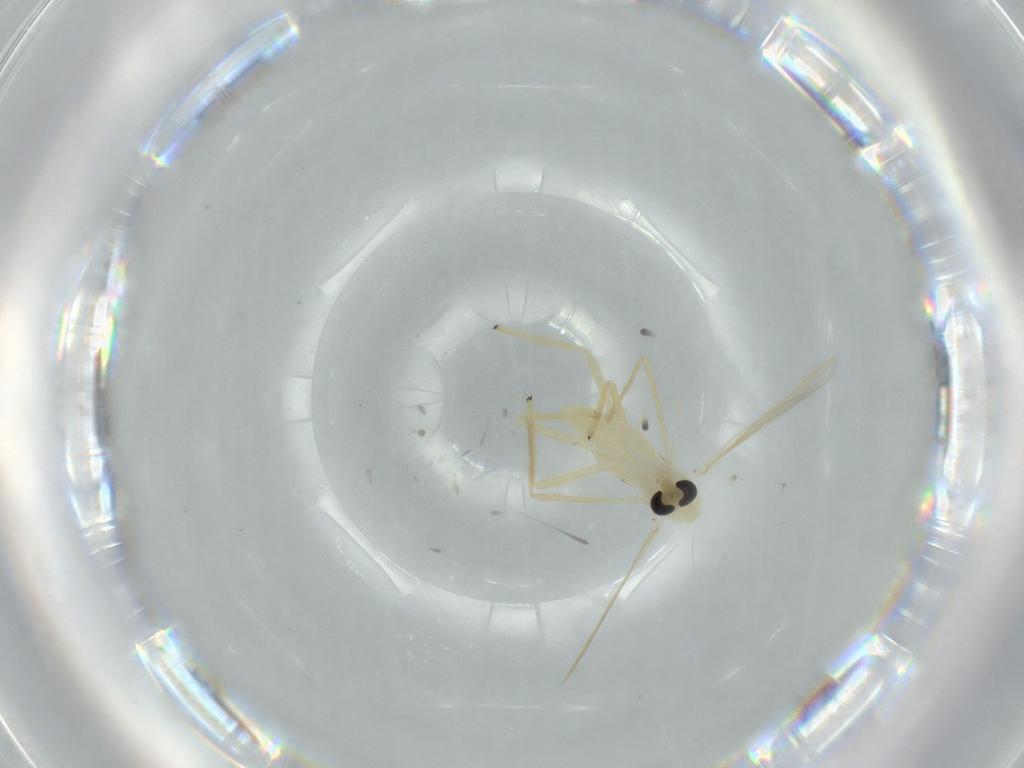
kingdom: Animalia
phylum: Arthropoda
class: Insecta
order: Diptera
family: Chironomidae
